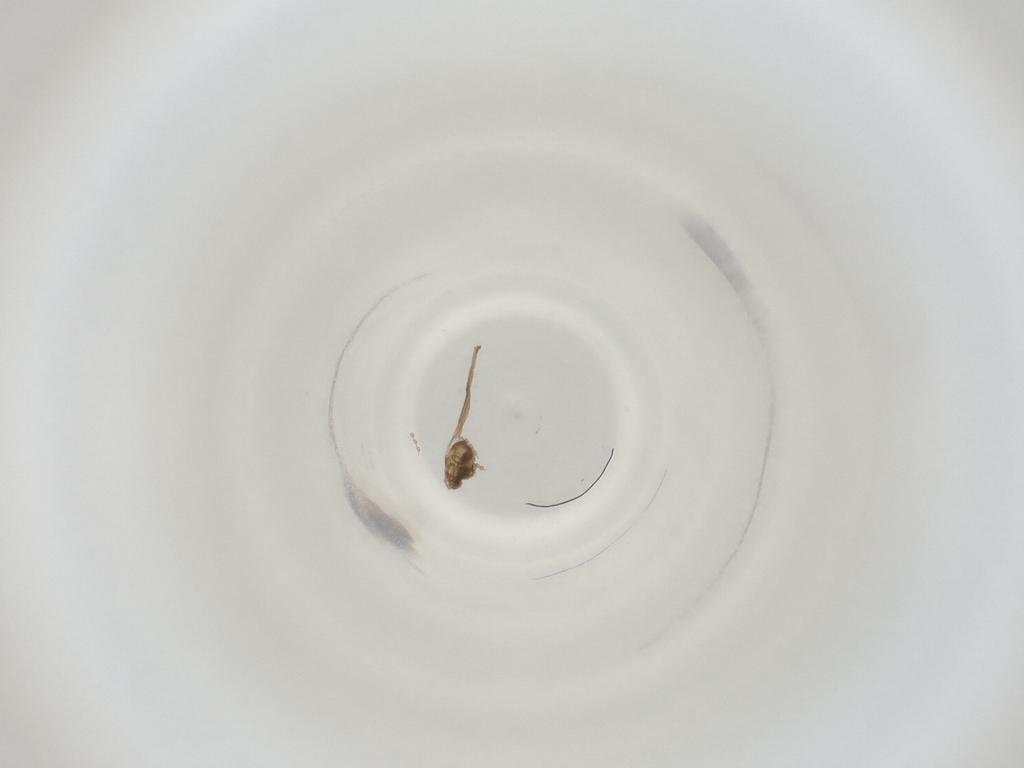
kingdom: Animalia
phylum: Arthropoda
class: Insecta
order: Diptera
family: Cecidomyiidae
